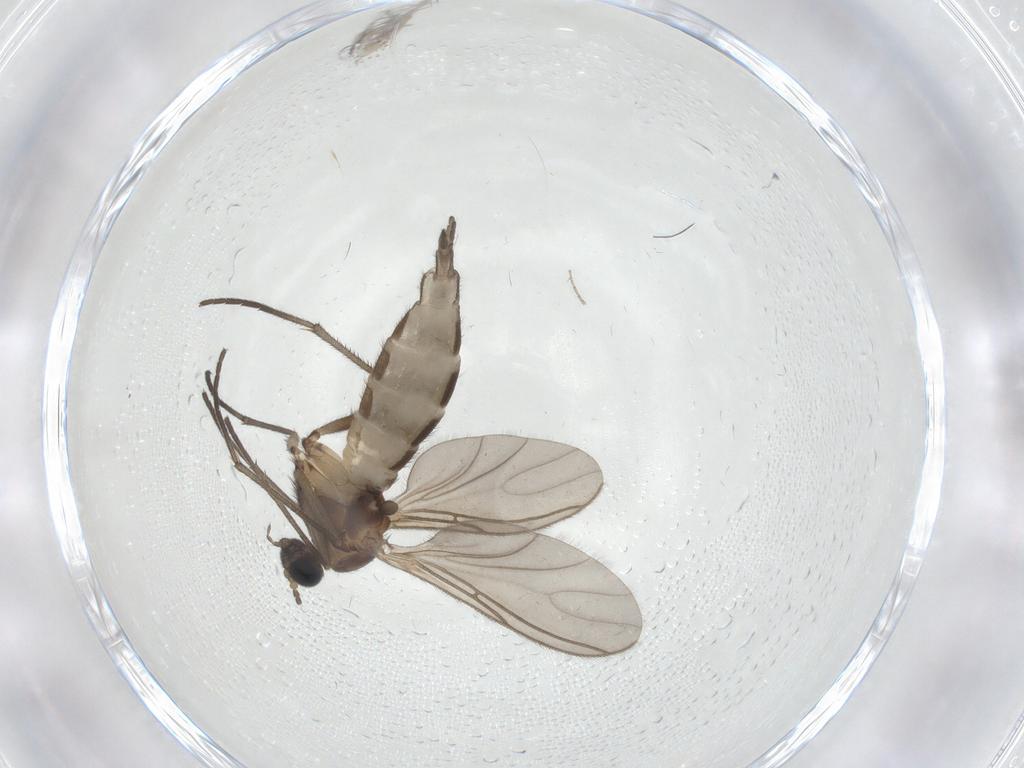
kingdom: Animalia
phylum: Arthropoda
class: Insecta
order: Diptera
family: Sciaridae
